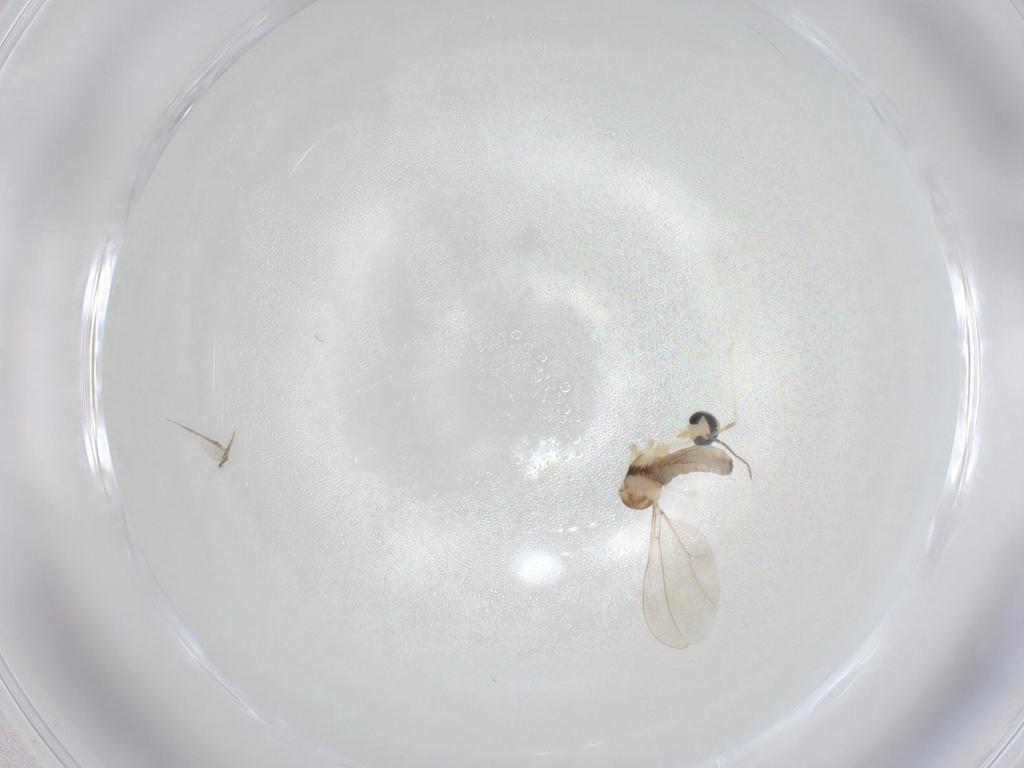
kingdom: Animalia
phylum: Arthropoda
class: Insecta
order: Diptera
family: Cecidomyiidae
